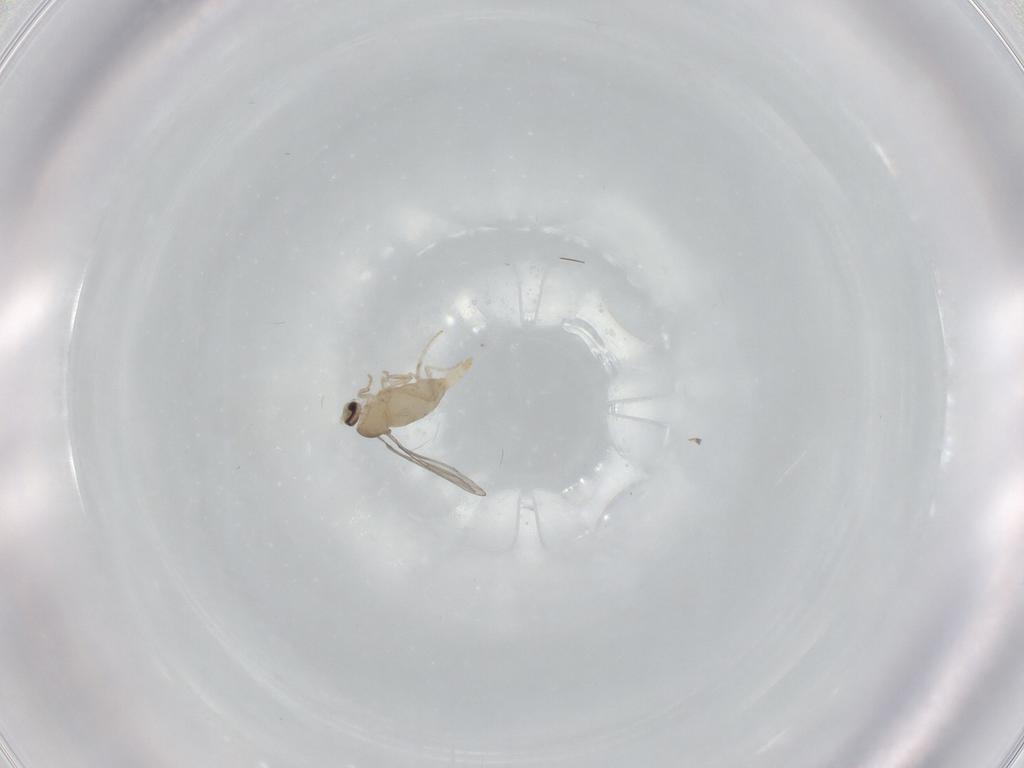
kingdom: Animalia
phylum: Arthropoda
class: Insecta
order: Diptera
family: Cecidomyiidae
